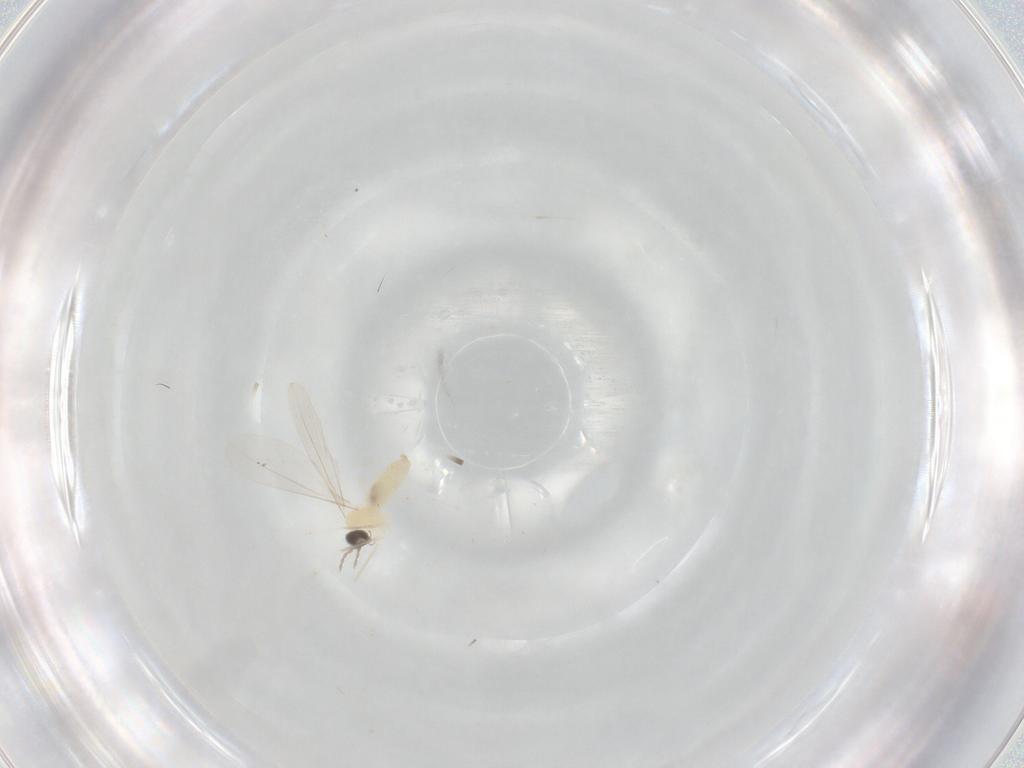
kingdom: Animalia
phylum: Arthropoda
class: Insecta
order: Diptera
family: Cecidomyiidae
